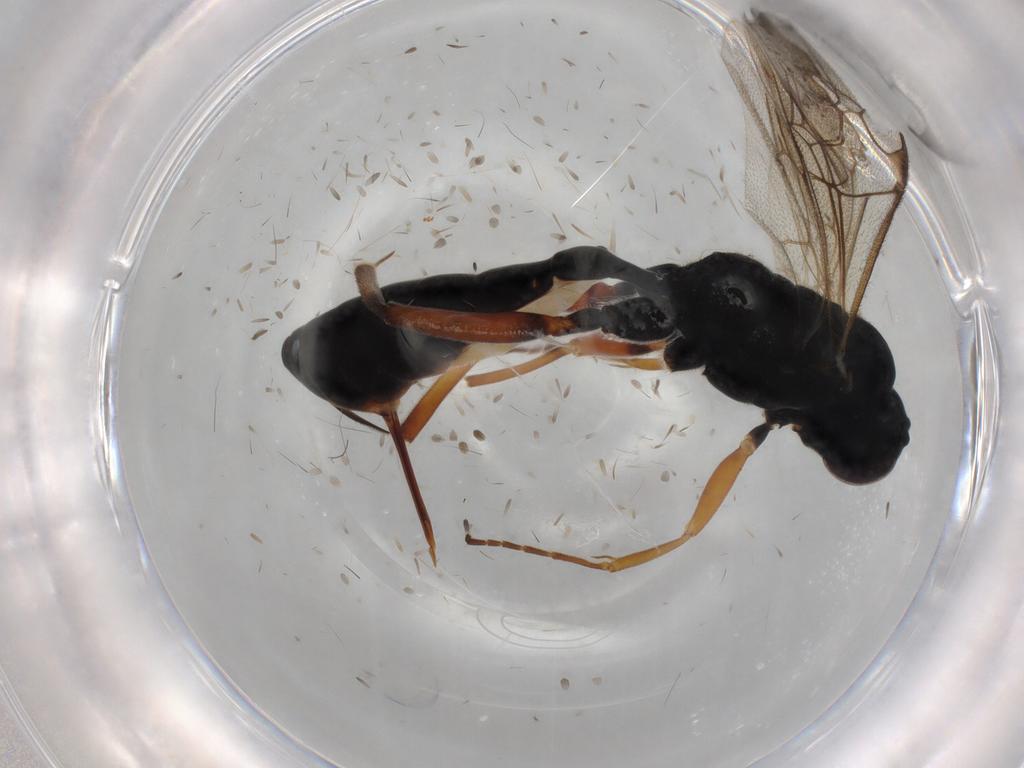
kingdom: Animalia
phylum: Arthropoda
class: Insecta
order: Hymenoptera
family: Ichneumonidae
